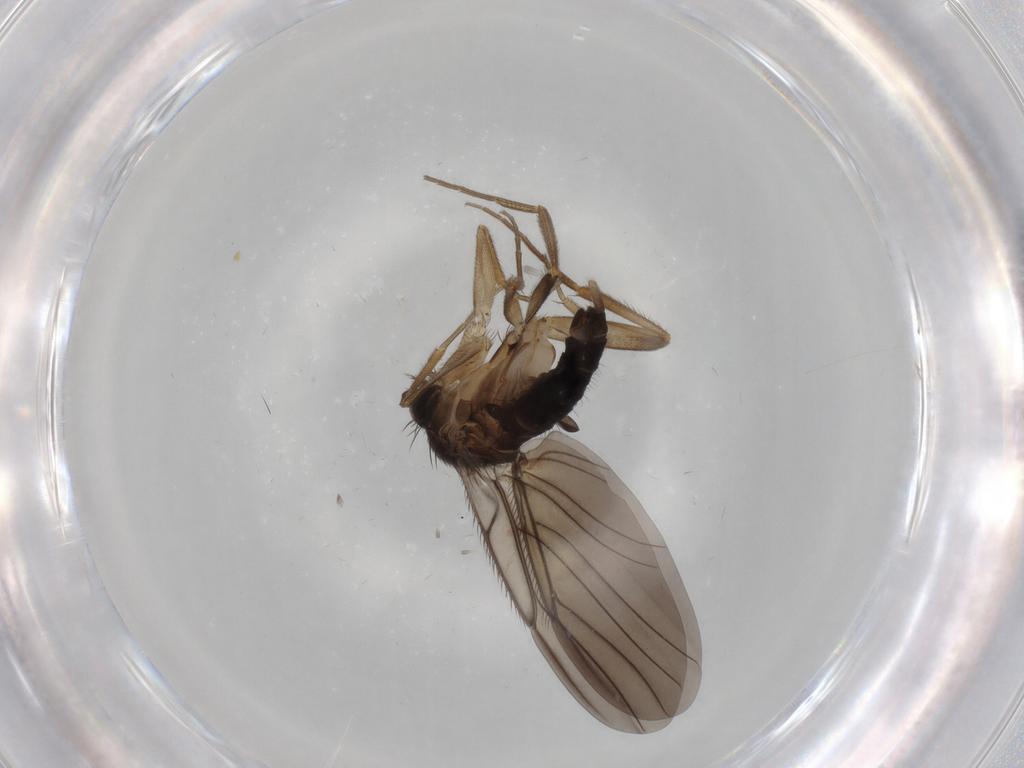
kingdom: Animalia
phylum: Arthropoda
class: Insecta
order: Diptera
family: Phoridae
